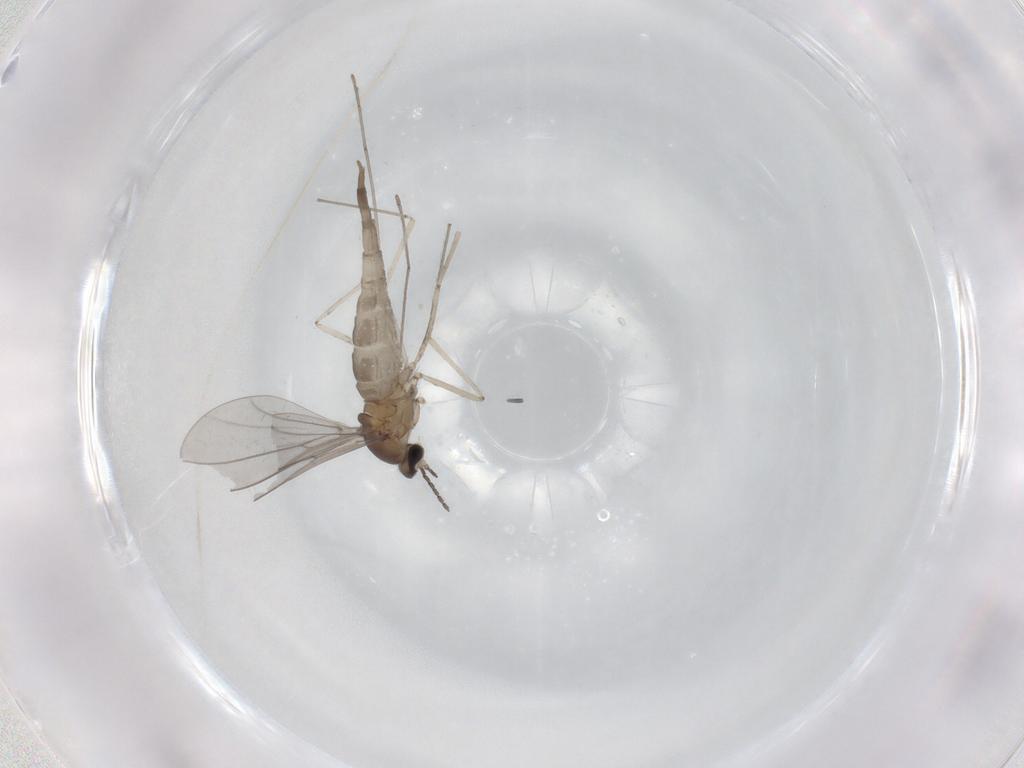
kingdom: Animalia
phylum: Arthropoda
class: Insecta
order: Diptera
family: Cecidomyiidae
